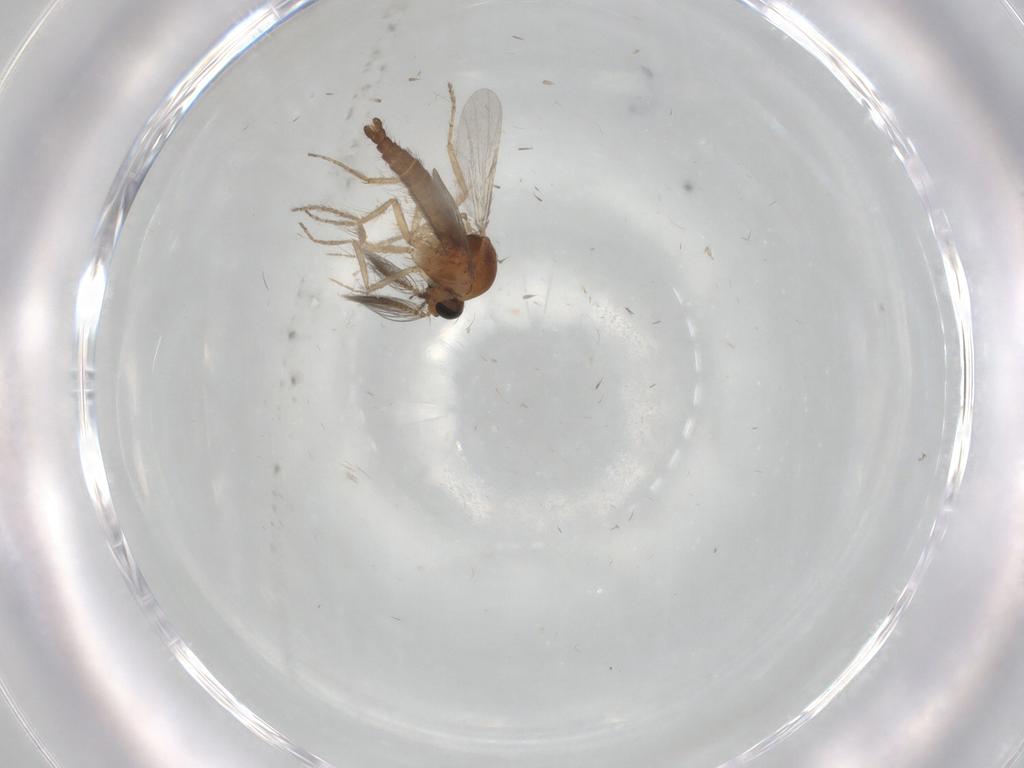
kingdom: Animalia
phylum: Arthropoda
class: Insecta
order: Diptera
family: Ceratopogonidae
